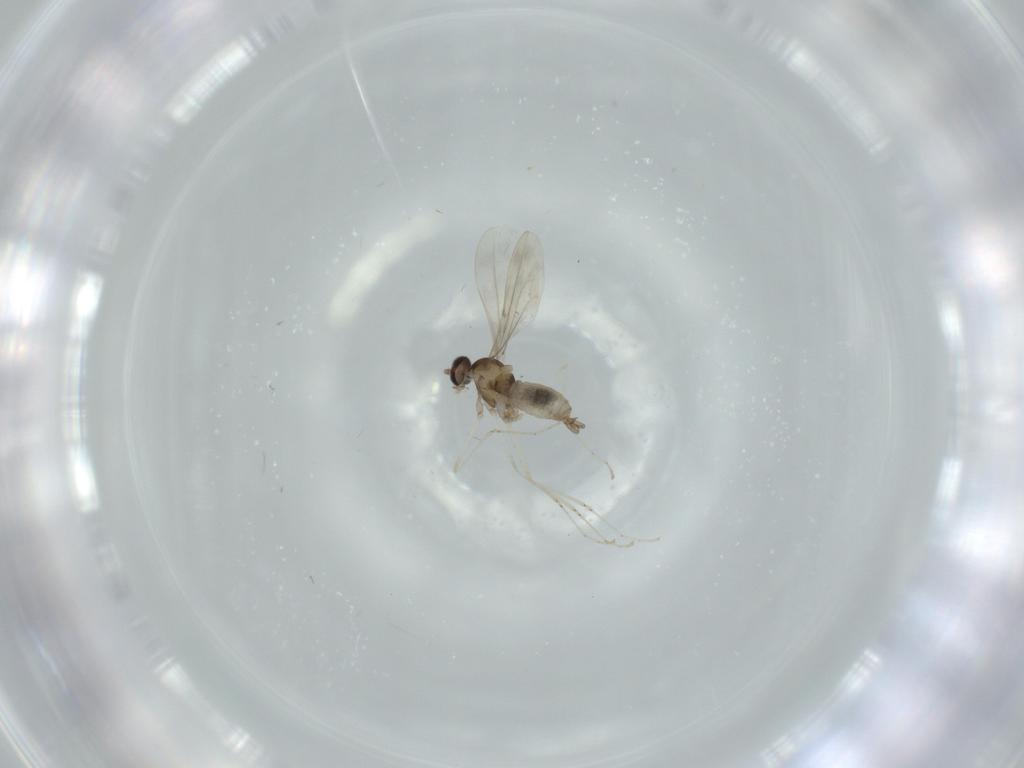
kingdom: Animalia
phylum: Arthropoda
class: Insecta
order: Diptera
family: Cecidomyiidae
